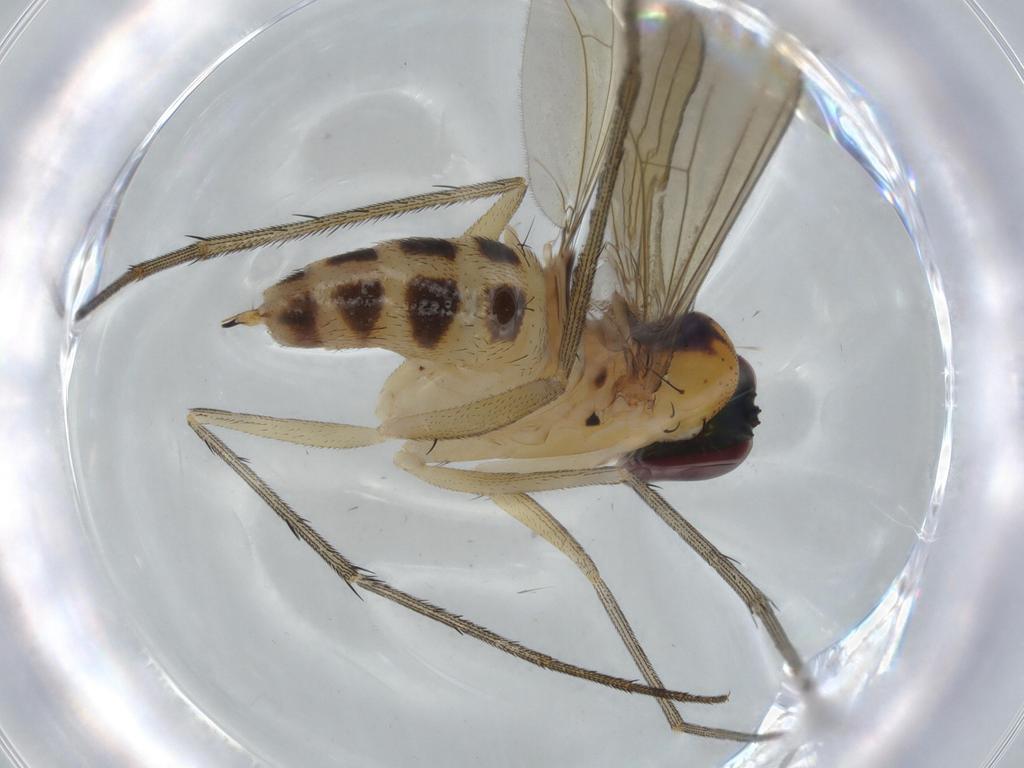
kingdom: Animalia
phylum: Arthropoda
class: Insecta
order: Diptera
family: Dolichopodidae
